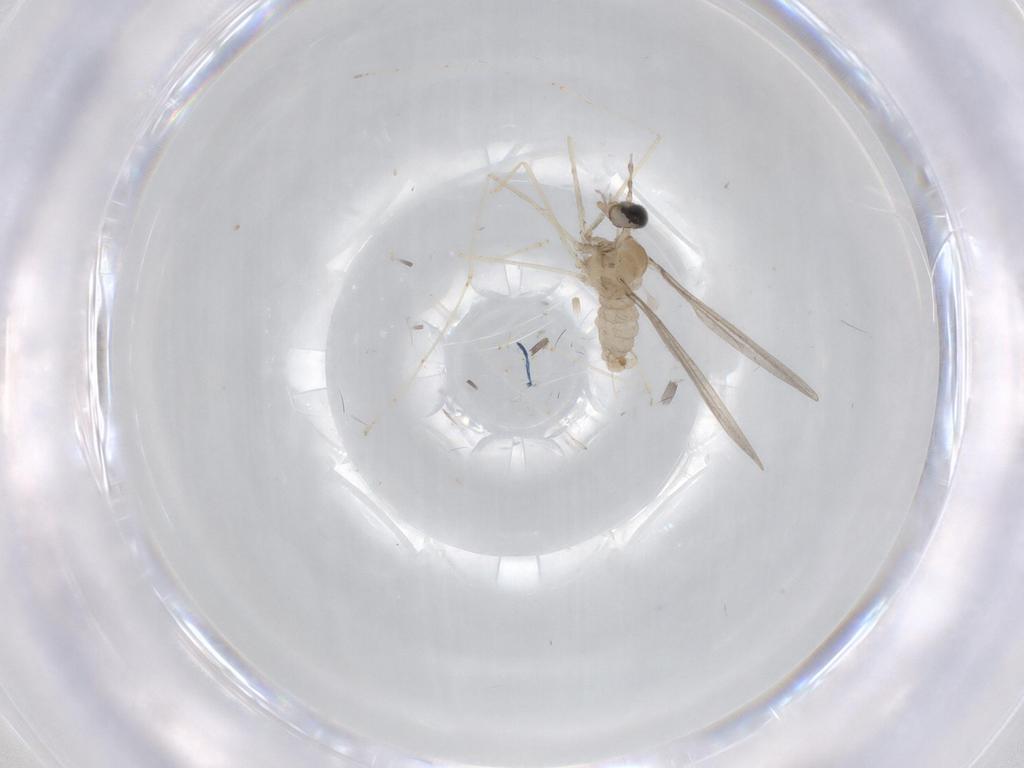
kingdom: Animalia
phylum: Arthropoda
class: Insecta
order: Diptera
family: Cecidomyiidae
